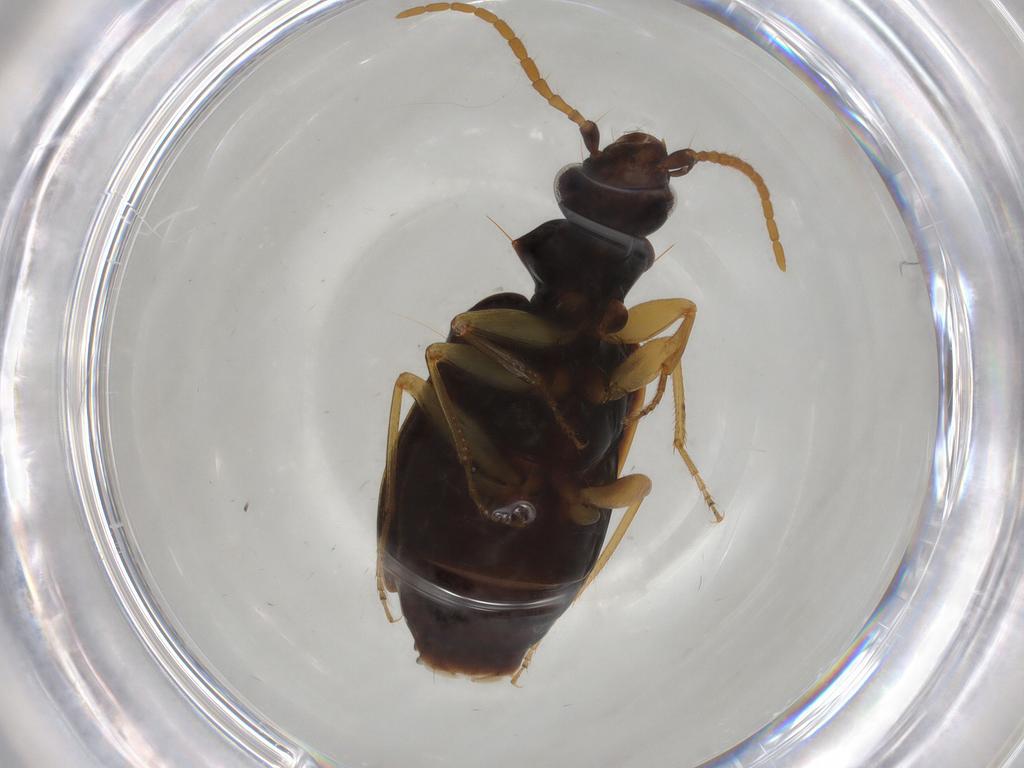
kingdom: Animalia
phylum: Arthropoda
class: Insecta
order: Coleoptera
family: Carabidae
